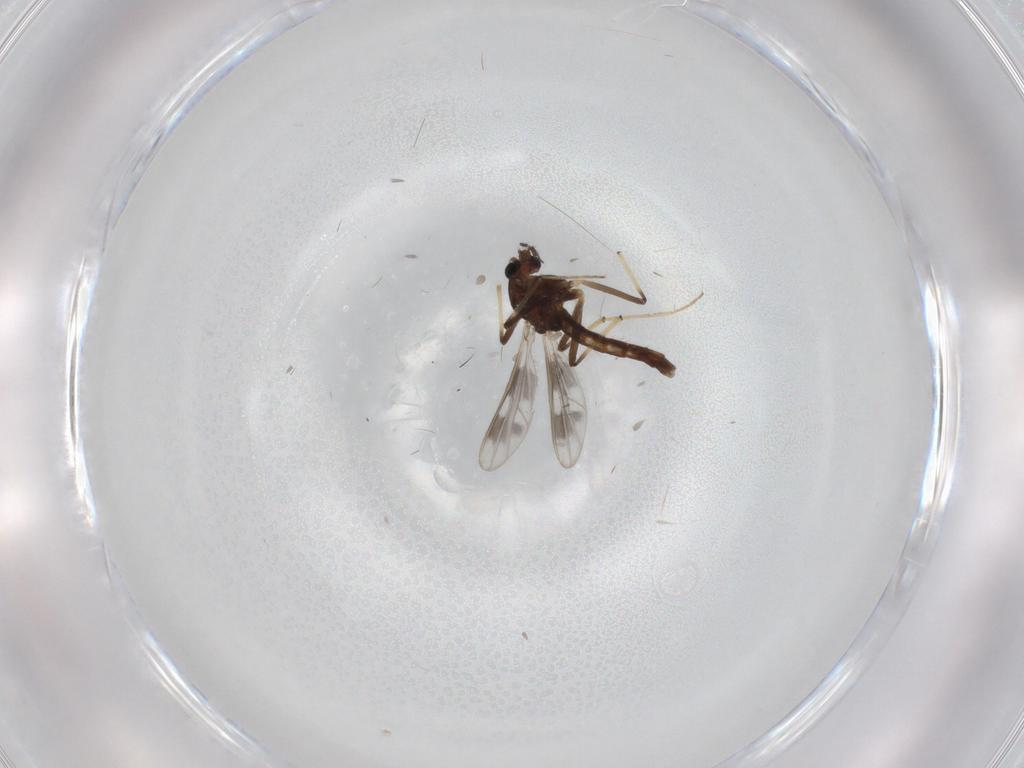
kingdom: Animalia
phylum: Arthropoda
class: Insecta
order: Diptera
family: Chironomidae
